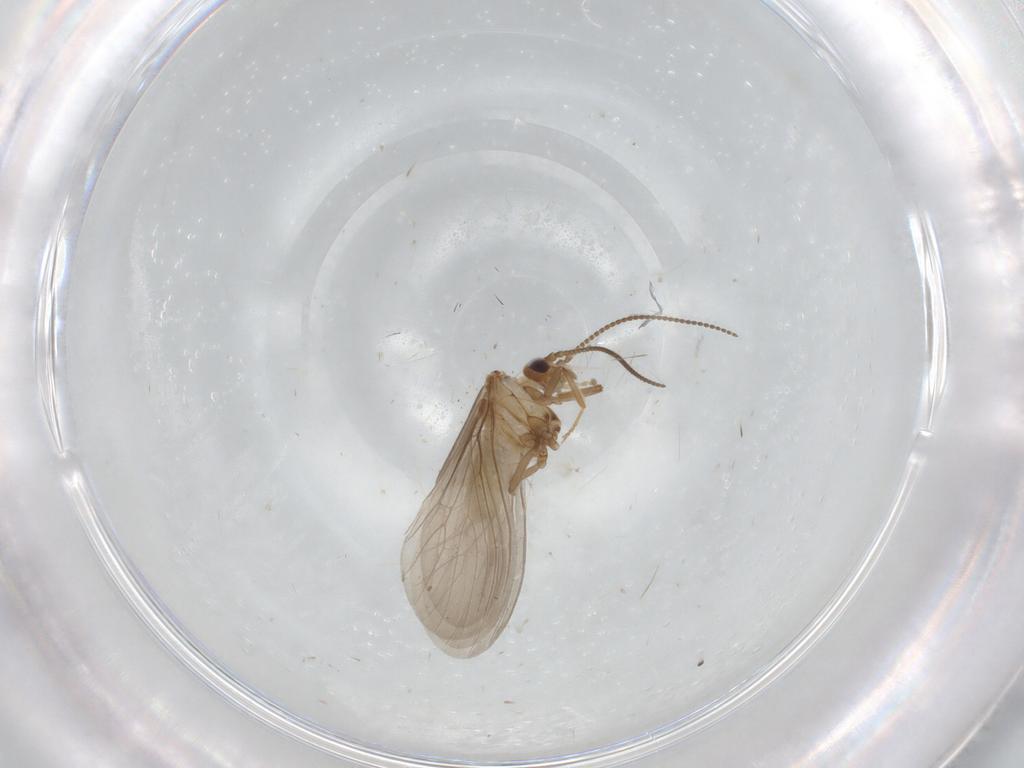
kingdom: Animalia
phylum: Arthropoda
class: Insecta
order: Neuroptera
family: Coniopterygidae
